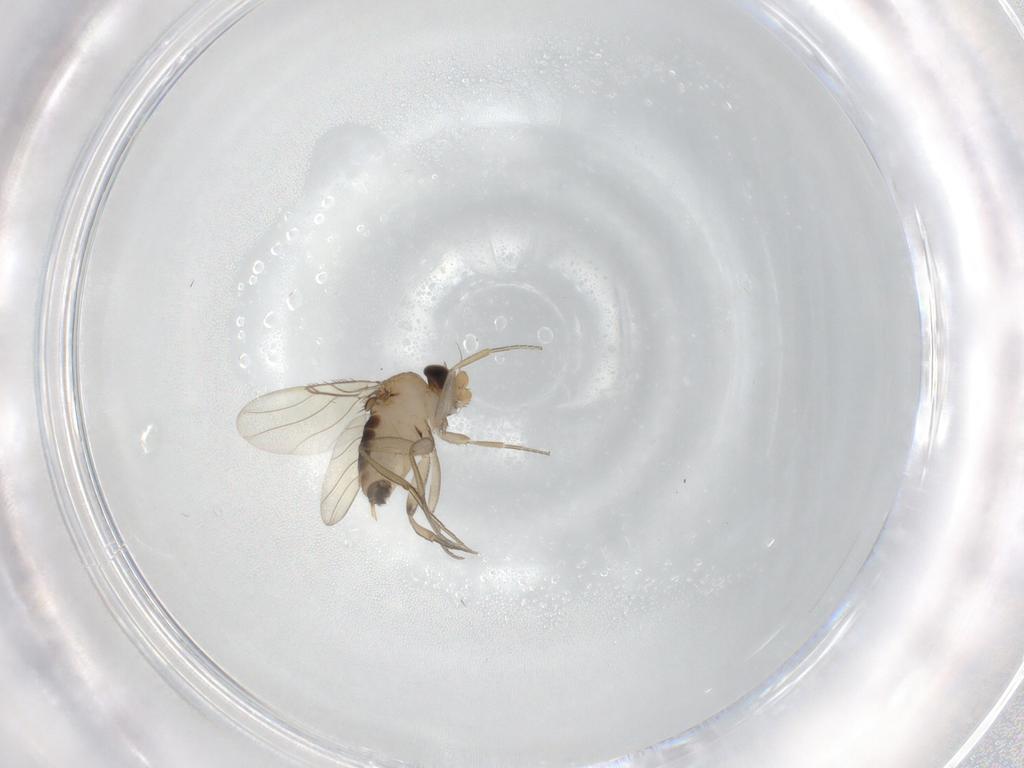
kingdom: Animalia
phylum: Arthropoda
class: Insecta
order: Diptera
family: Phoridae
